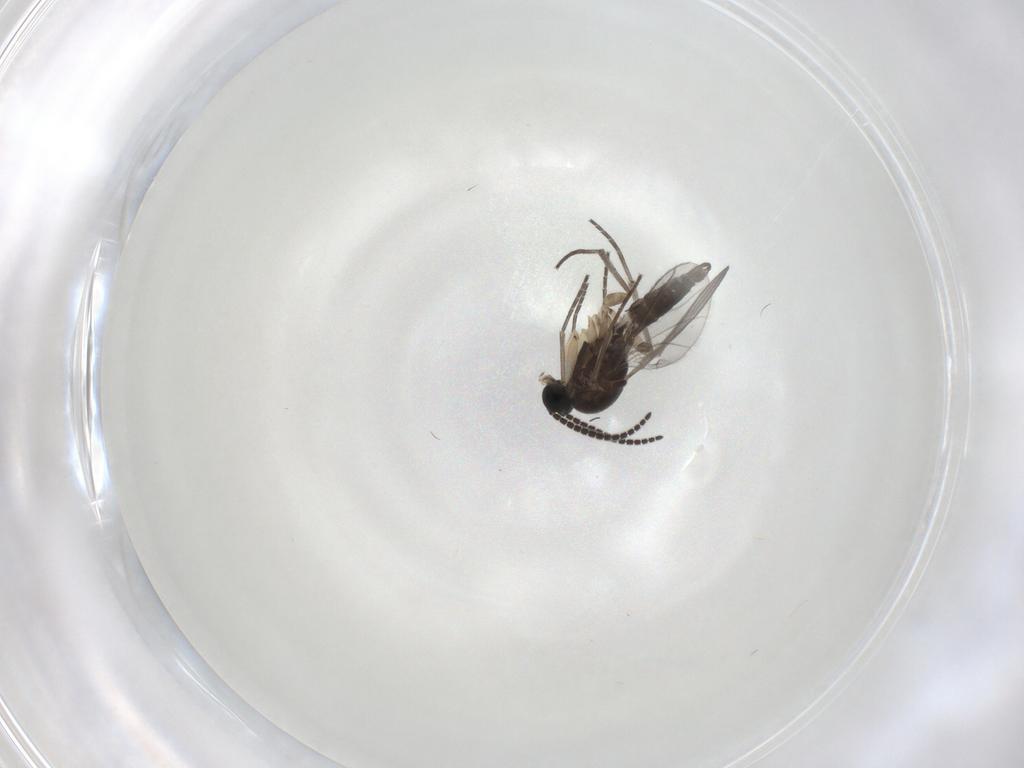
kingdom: Animalia
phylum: Arthropoda
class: Insecta
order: Diptera
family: Sciaridae
